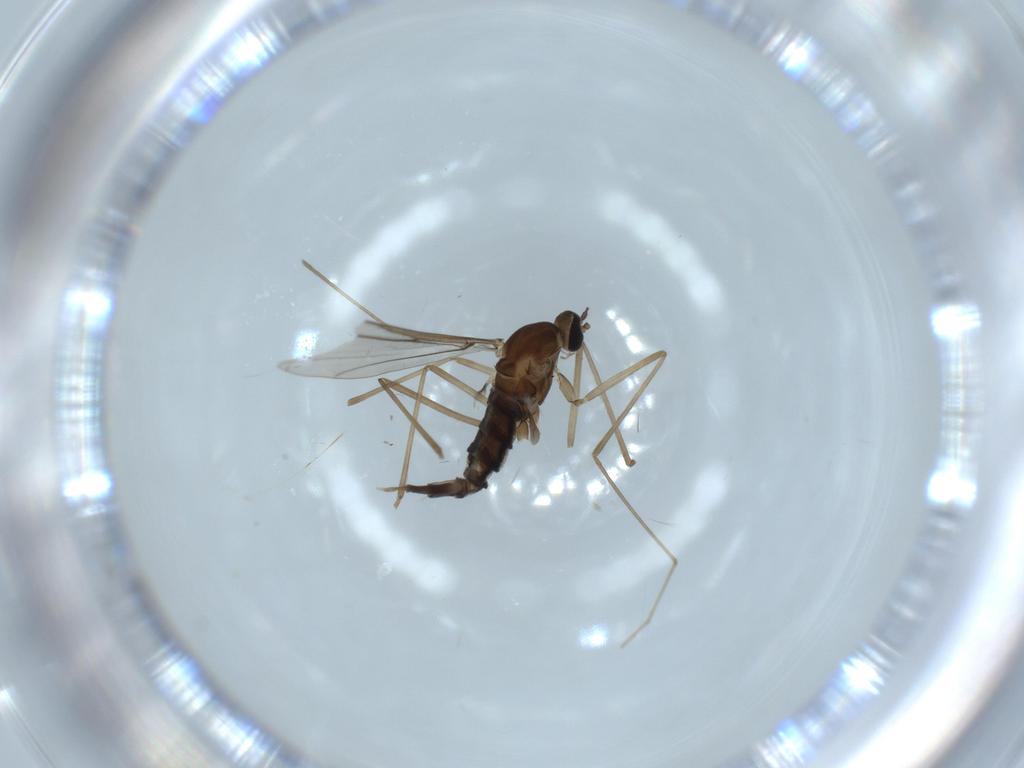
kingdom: Animalia
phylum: Arthropoda
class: Insecta
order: Diptera
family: Cecidomyiidae
